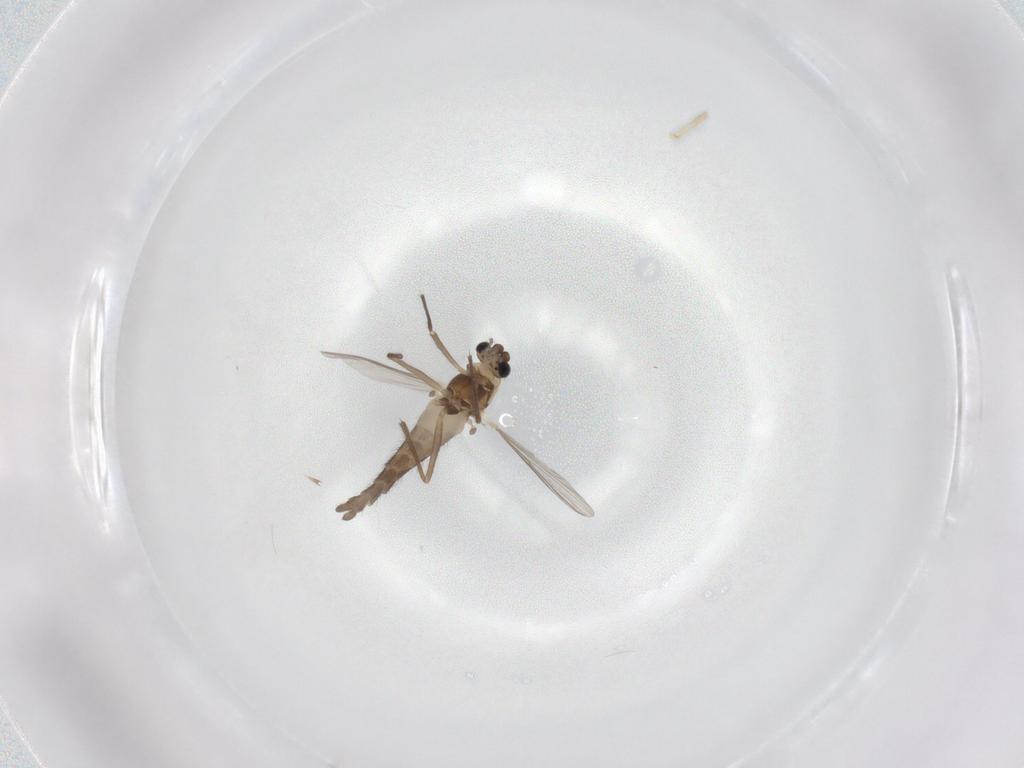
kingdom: Animalia
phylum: Arthropoda
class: Insecta
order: Diptera
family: Chironomidae
